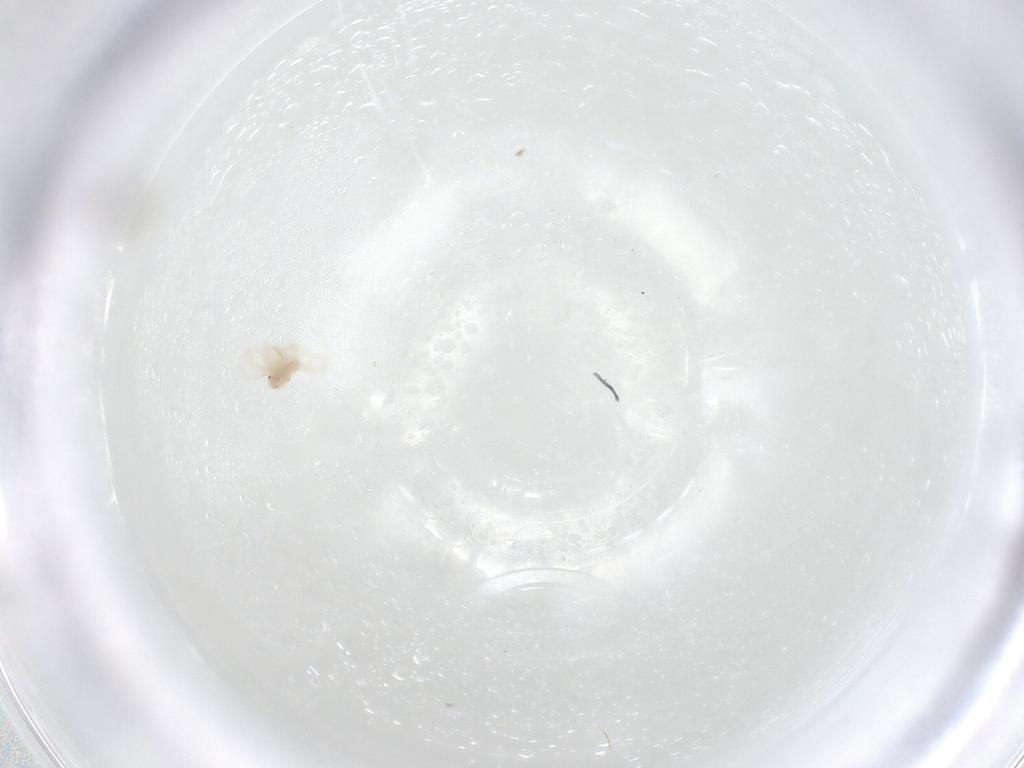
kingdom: Animalia
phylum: Arthropoda
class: Arachnida
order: Trombidiformes
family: Anystidae
